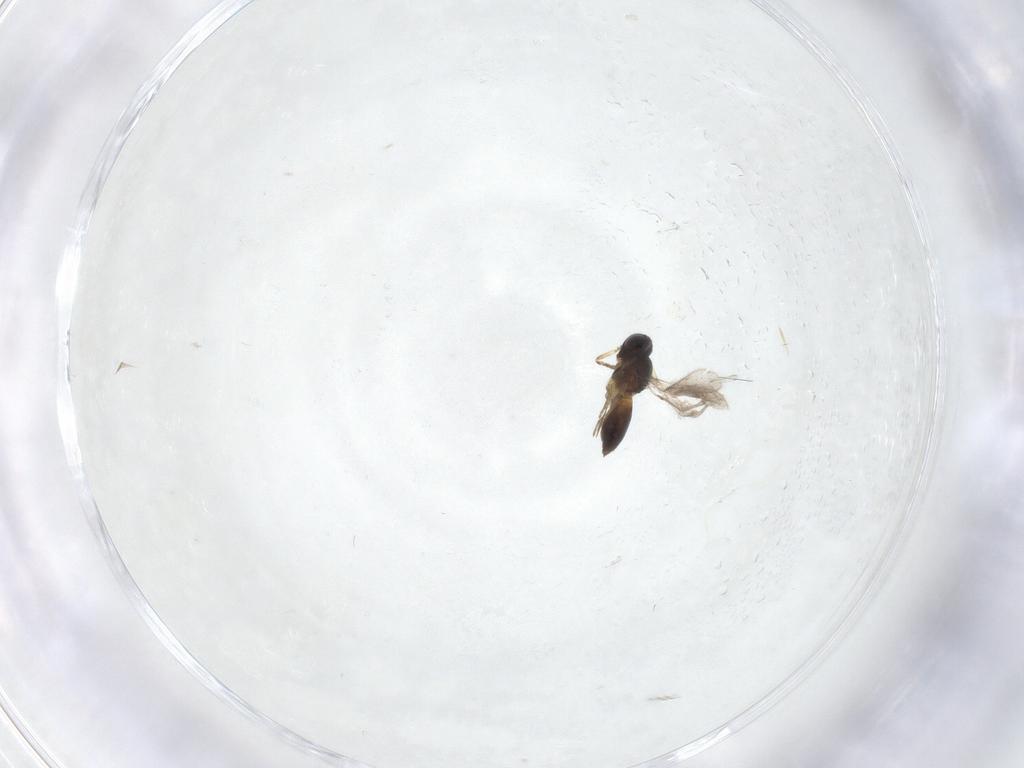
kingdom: Animalia
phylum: Arthropoda
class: Insecta
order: Hymenoptera
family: Scelionidae
